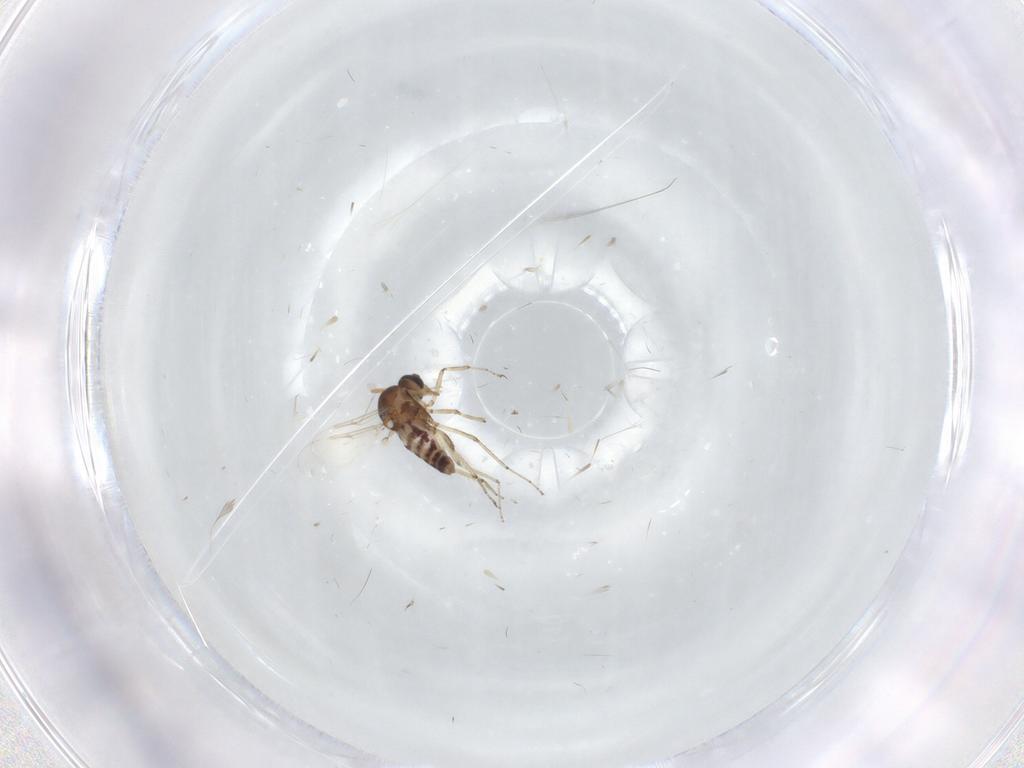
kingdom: Animalia
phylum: Arthropoda
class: Insecta
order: Diptera
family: Ceratopogonidae
